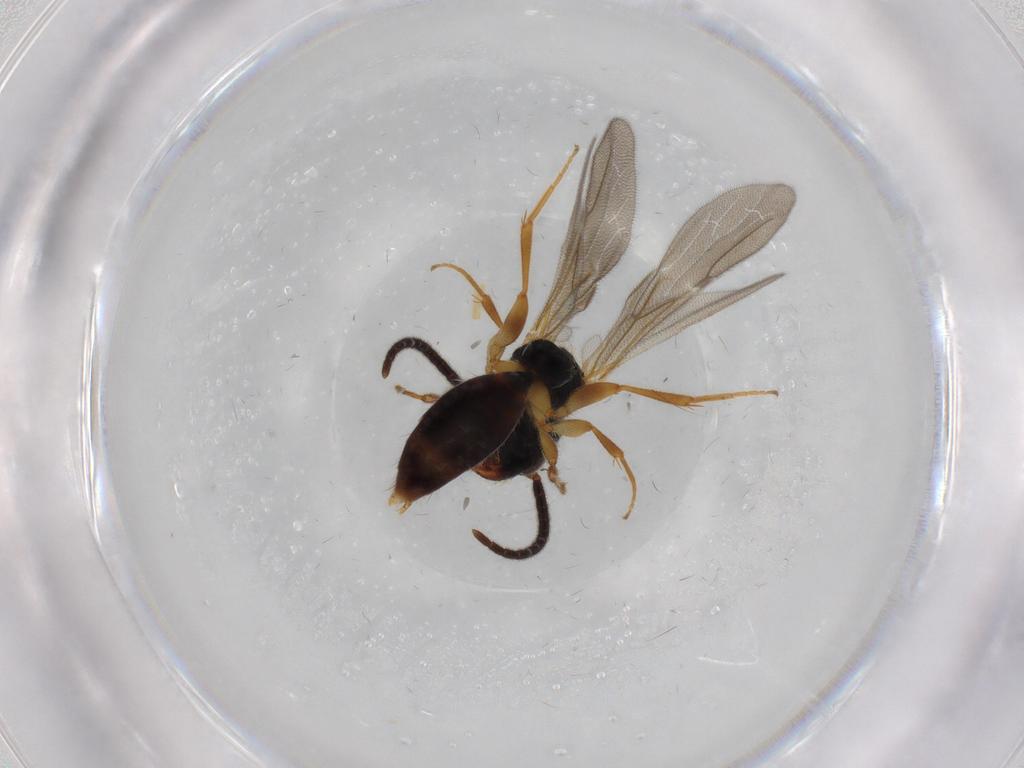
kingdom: Animalia
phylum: Arthropoda
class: Insecta
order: Hymenoptera
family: Bethylidae
